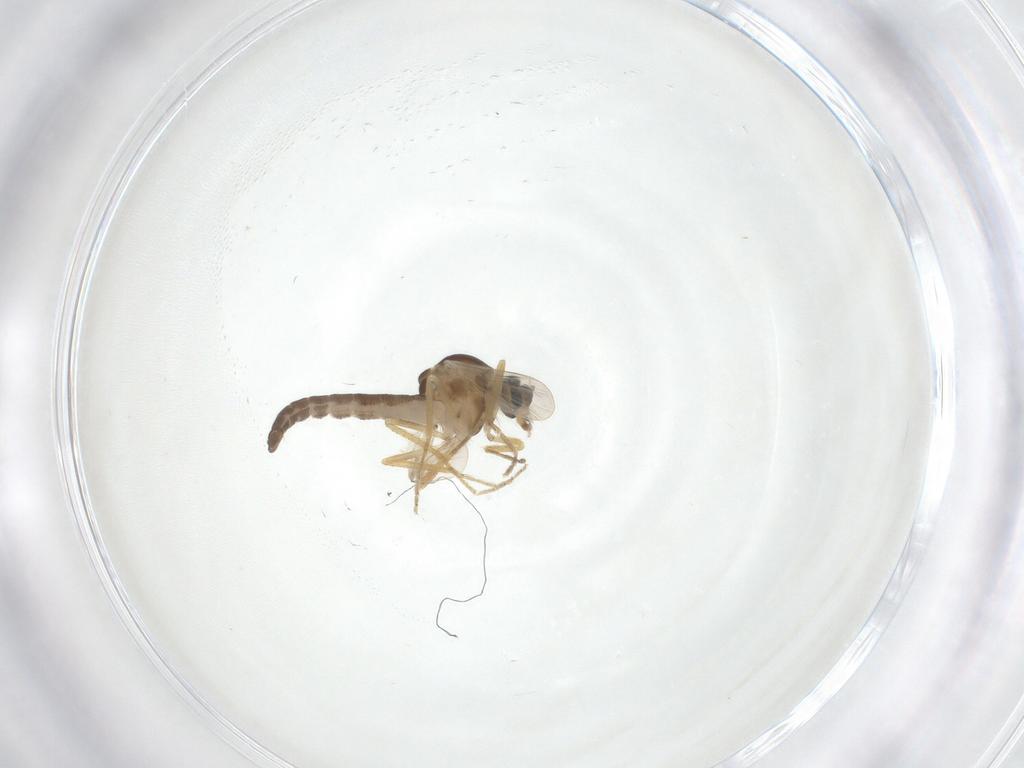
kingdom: Animalia
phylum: Arthropoda
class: Insecta
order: Diptera
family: Ceratopogonidae
